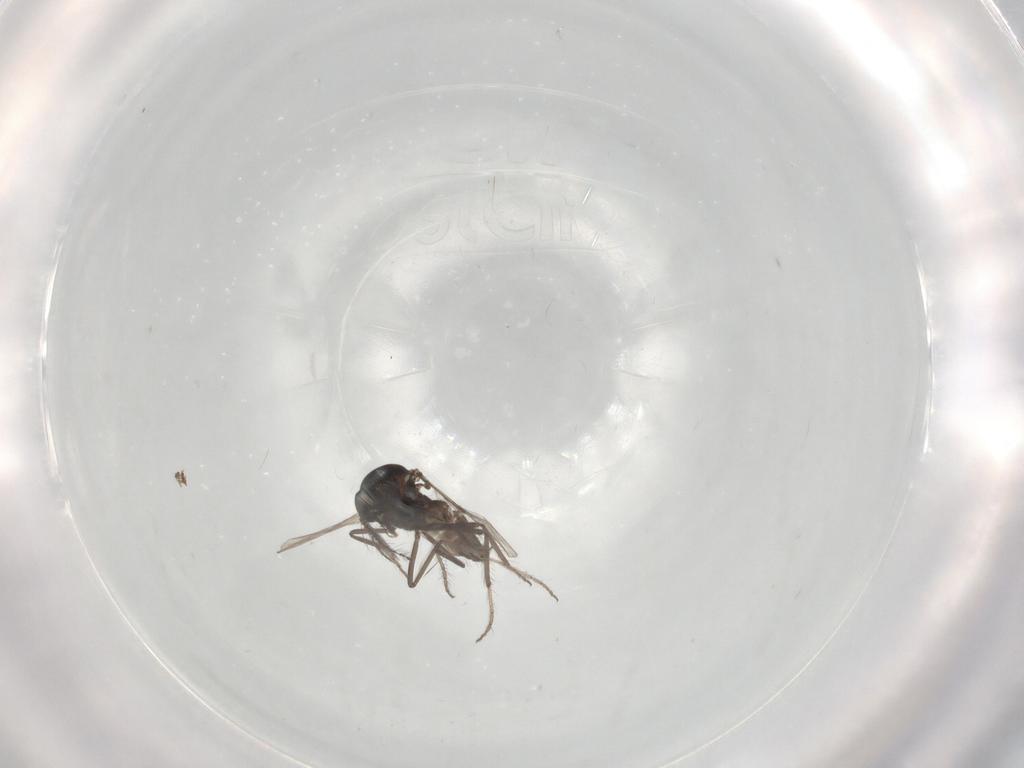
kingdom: Animalia
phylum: Arthropoda
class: Insecta
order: Diptera
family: Ceratopogonidae
